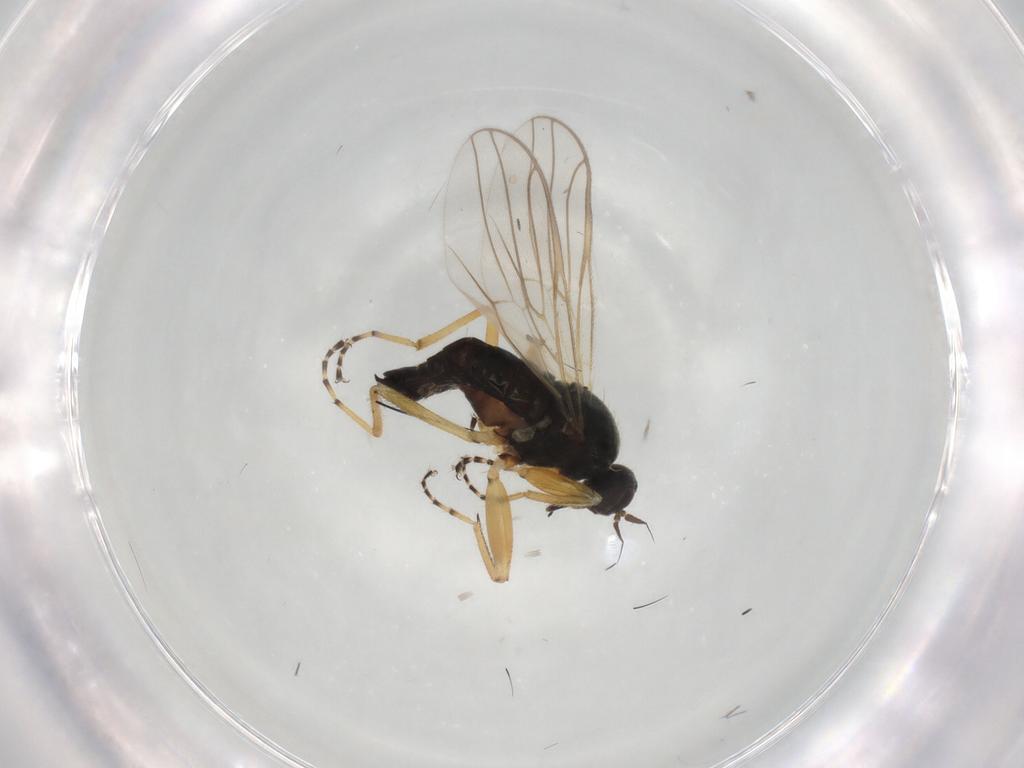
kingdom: Animalia
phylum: Arthropoda
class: Insecta
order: Diptera
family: Hybotidae
